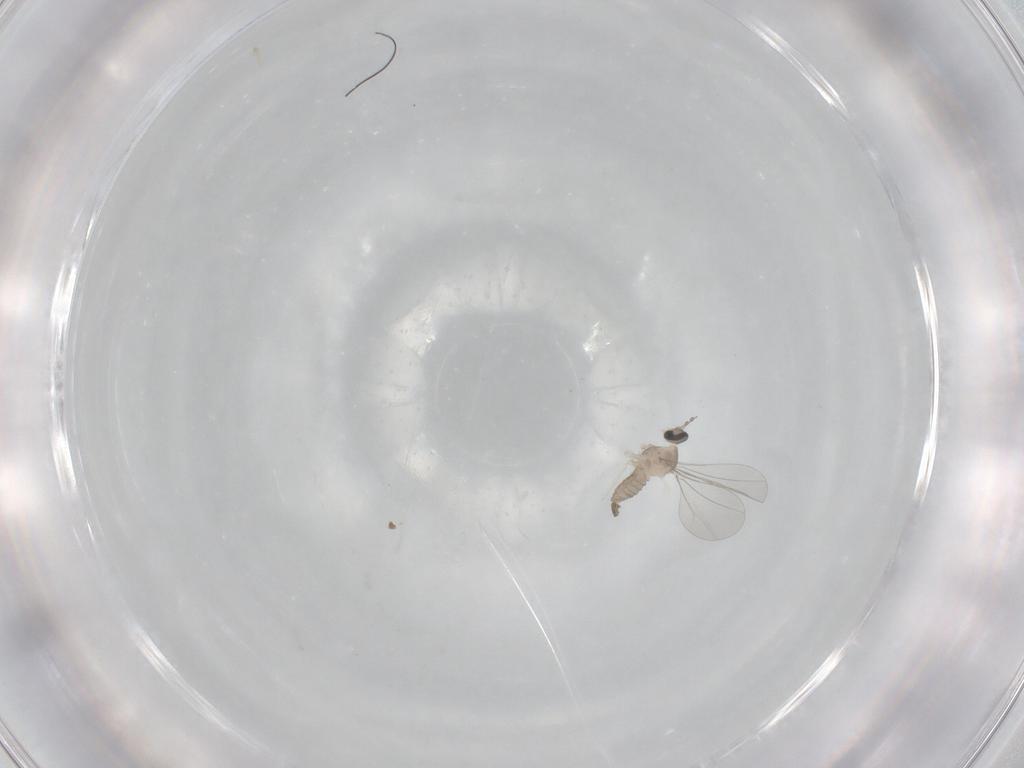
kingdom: Animalia
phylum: Arthropoda
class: Insecta
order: Diptera
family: Cecidomyiidae
